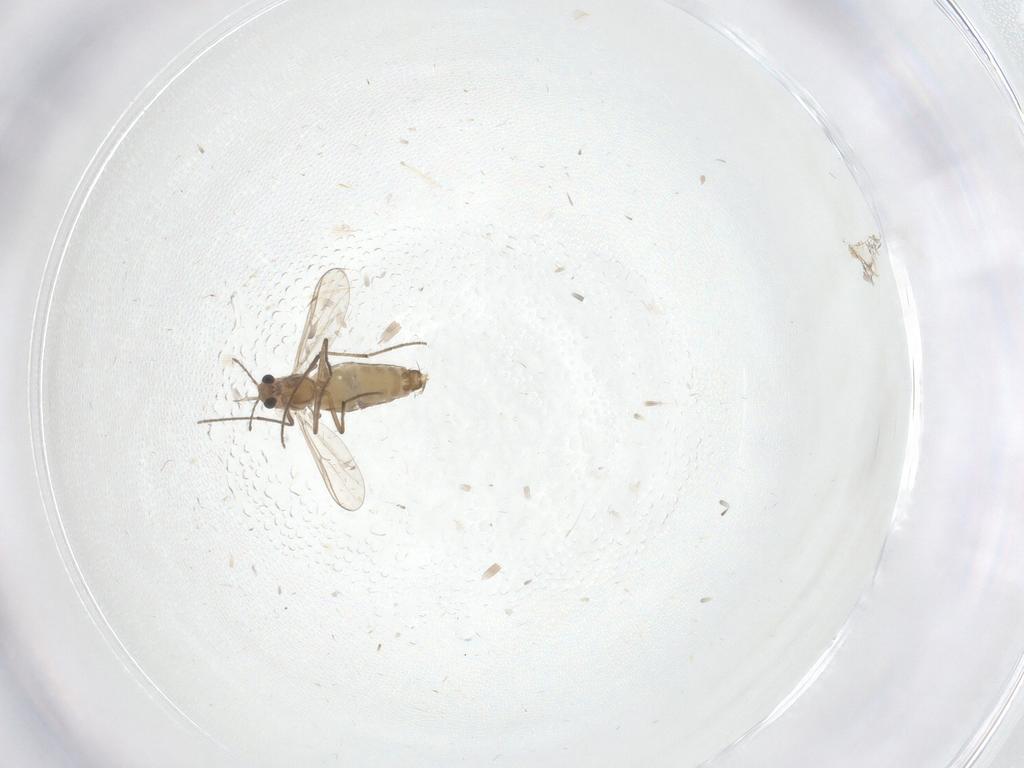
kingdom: Animalia
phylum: Arthropoda
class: Insecta
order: Diptera
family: Chironomidae
